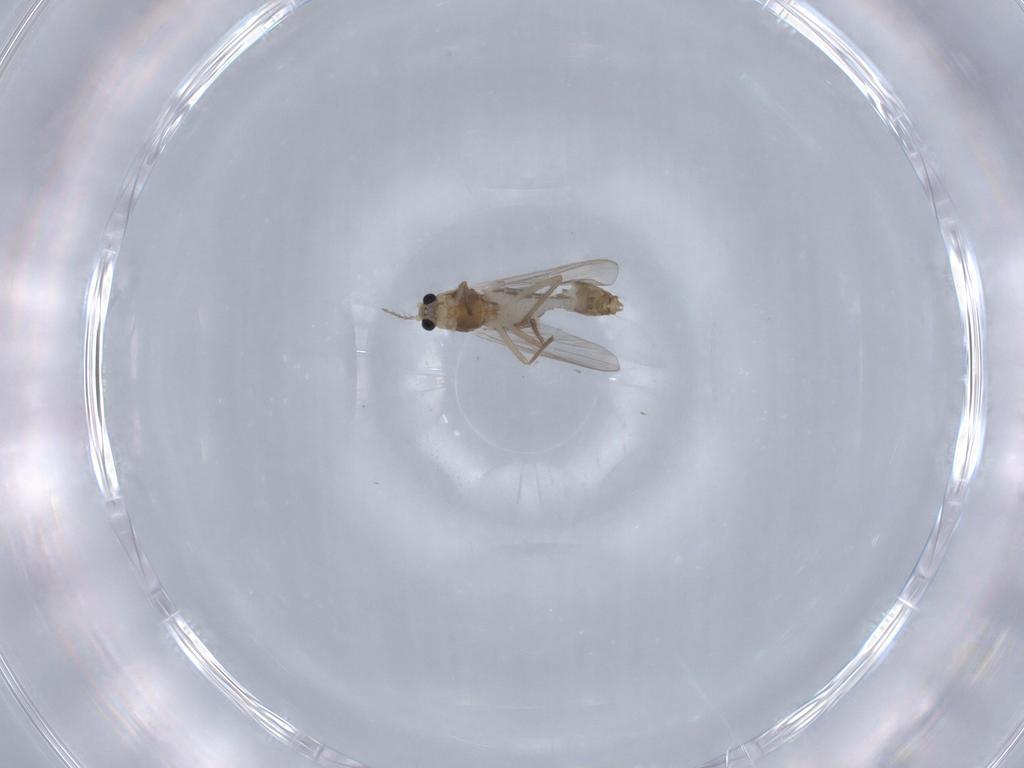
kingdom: Animalia
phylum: Arthropoda
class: Insecta
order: Diptera
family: Chironomidae
